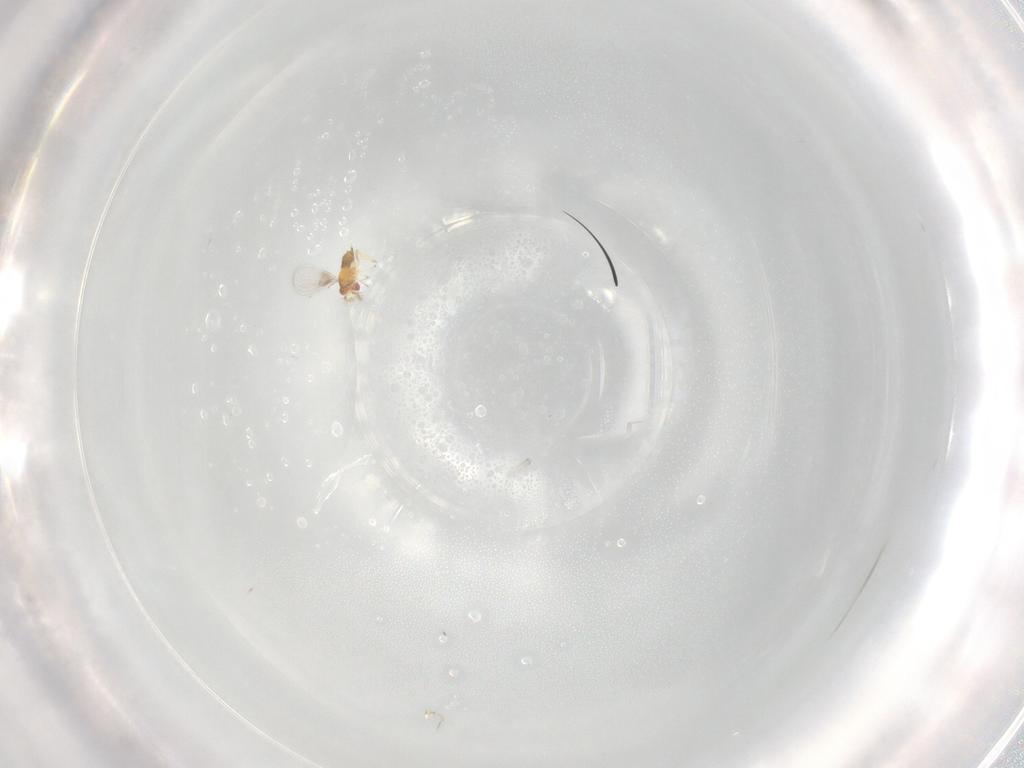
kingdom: Animalia
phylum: Arthropoda
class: Insecta
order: Hymenoptera
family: Trichogrammatidae
